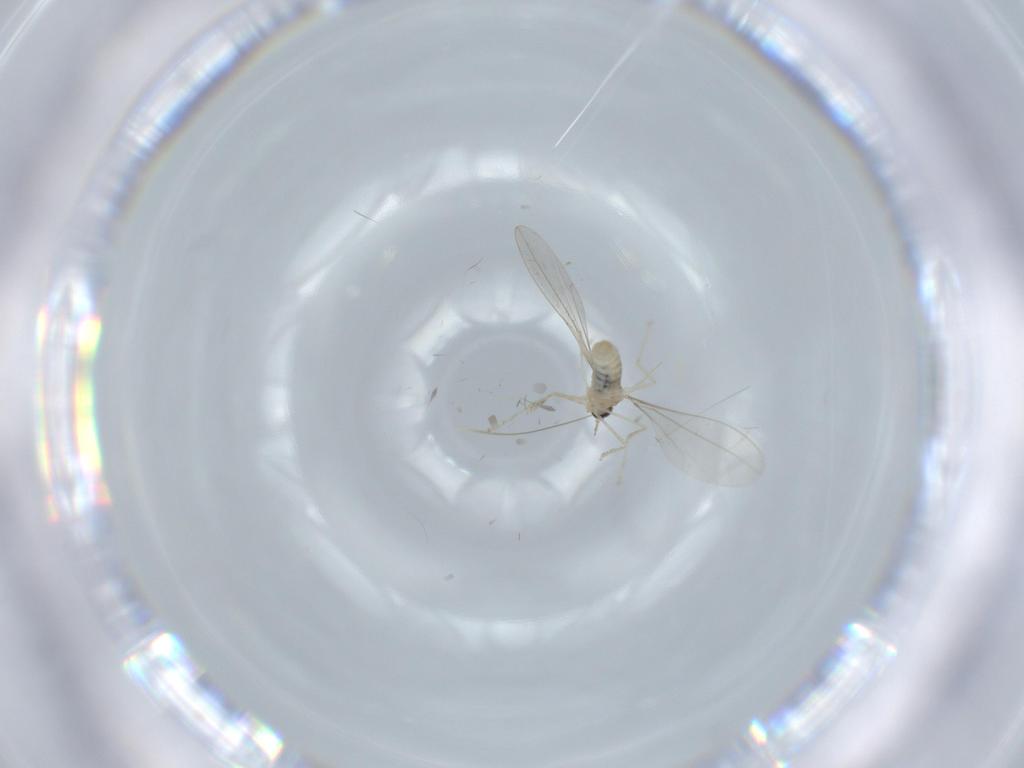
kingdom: Animalia
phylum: Arthropoda
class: Insecta
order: Diptera
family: Cecidomyiidae
